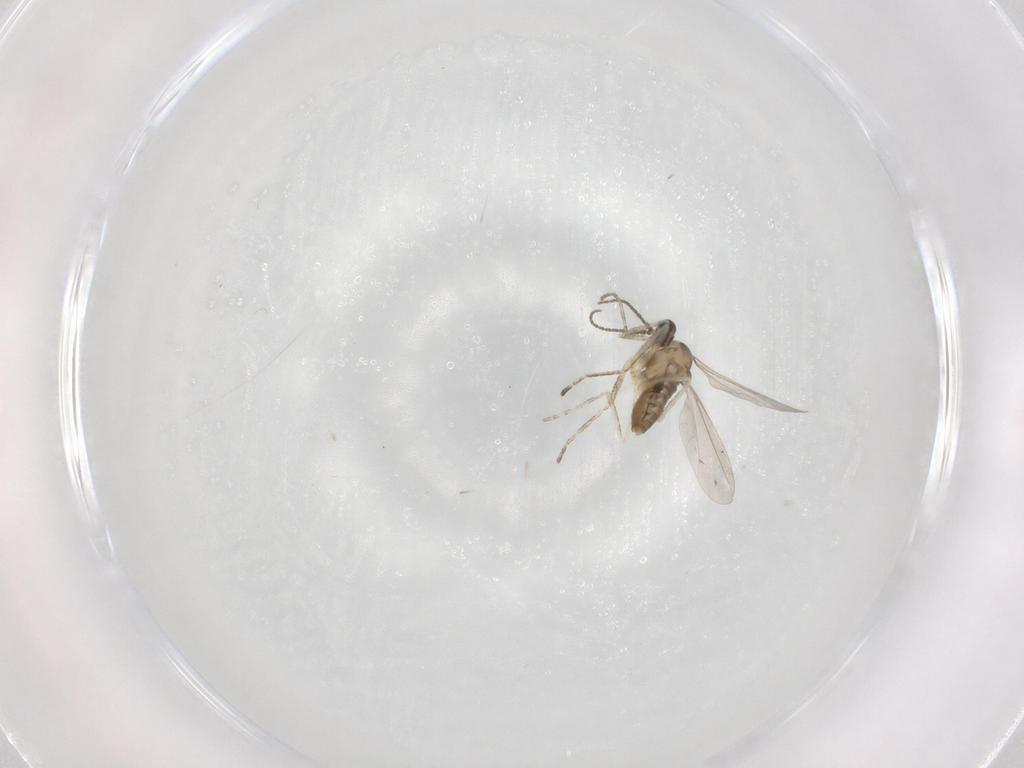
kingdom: Animalia
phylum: Arthropoda
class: Insecta
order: Diptera
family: Cecidomyiidae
